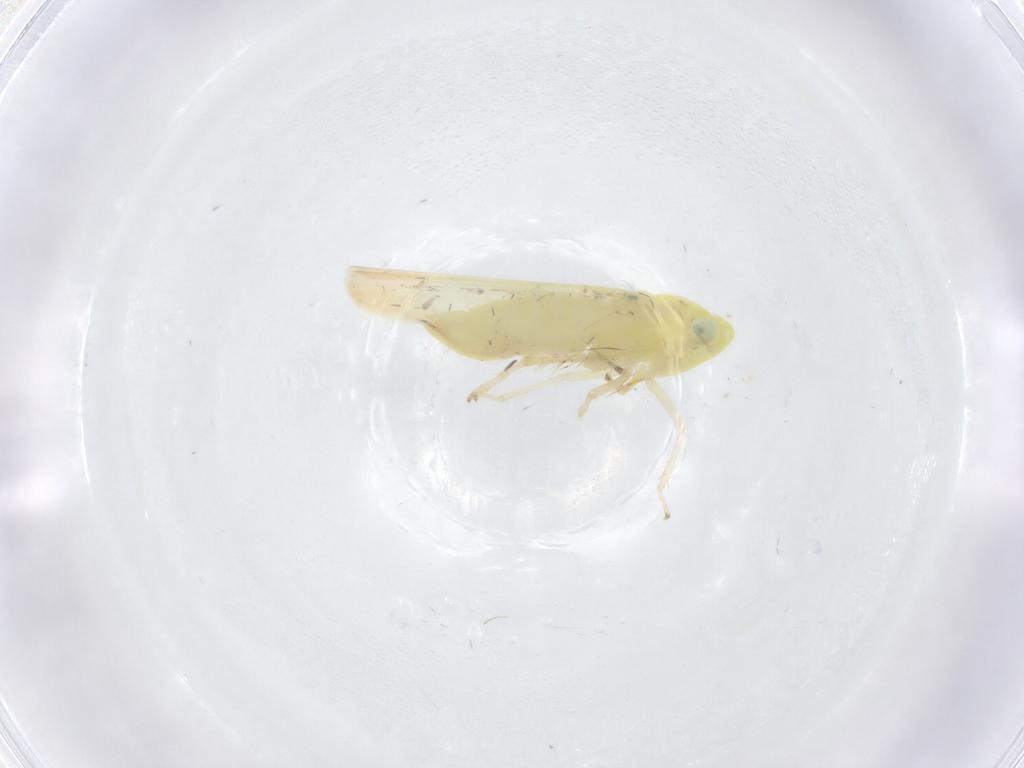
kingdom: Animalia
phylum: Arthropoda
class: Insecta
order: Hemiptera
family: Cicadellidae
